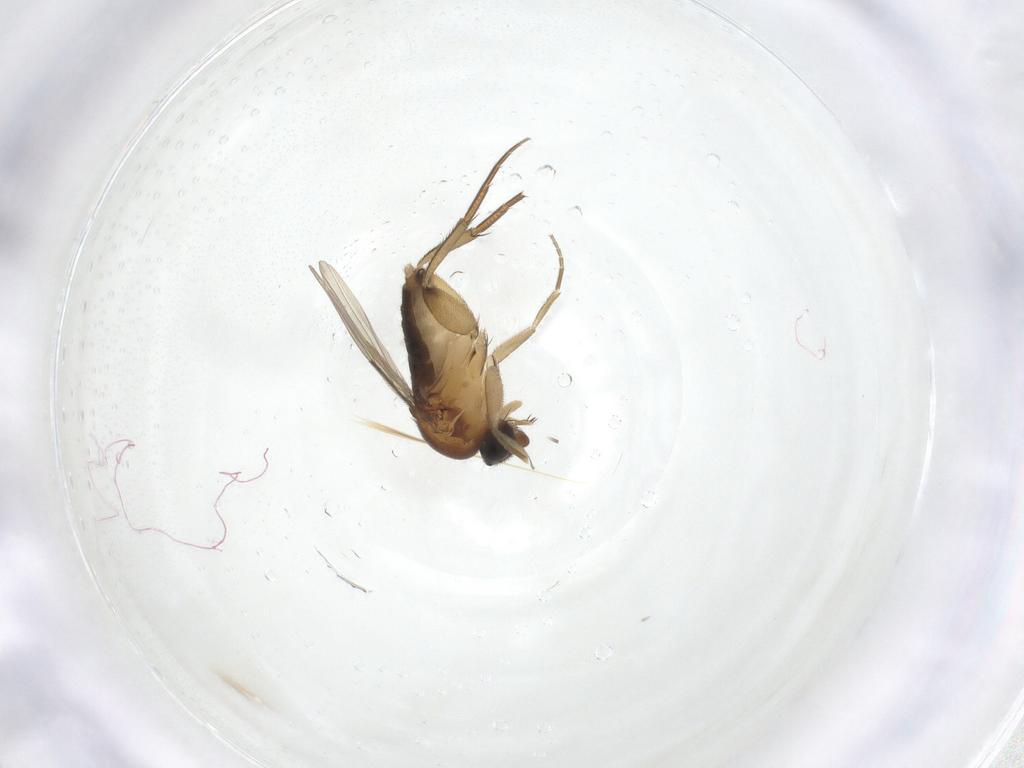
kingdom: Animalia
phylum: Arthropoda
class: Insecta
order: Diptera
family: Phoridae
